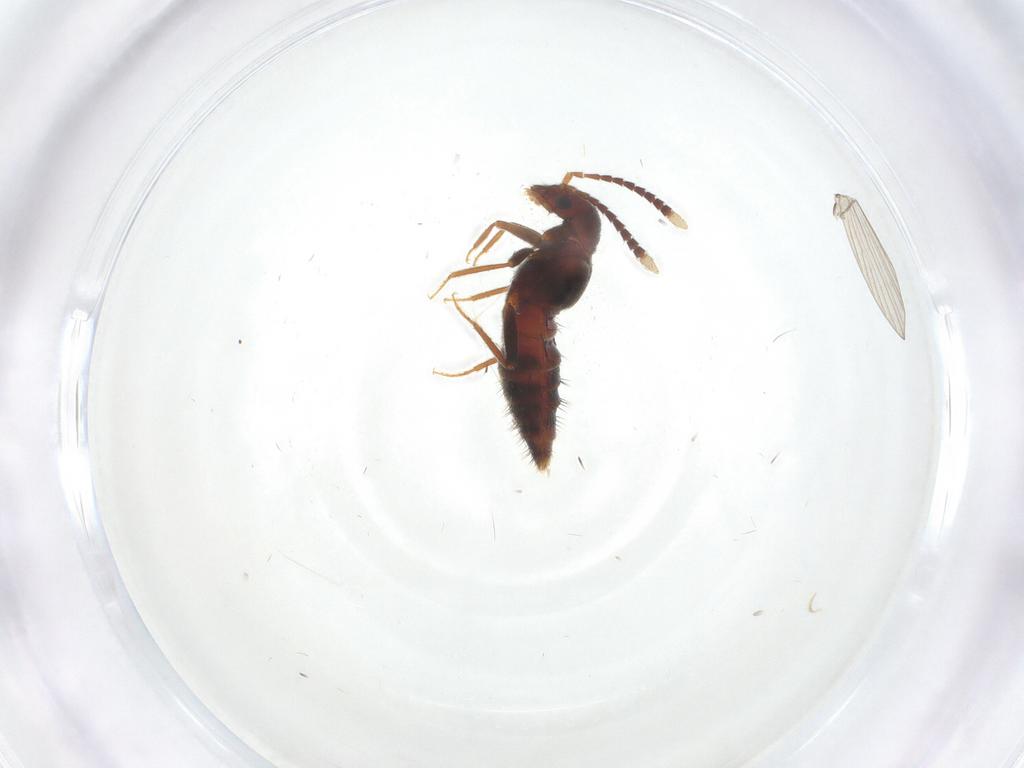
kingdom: Animalia
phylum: Arthropoda
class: Insecta
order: Coleoptera
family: Staphylinidae
